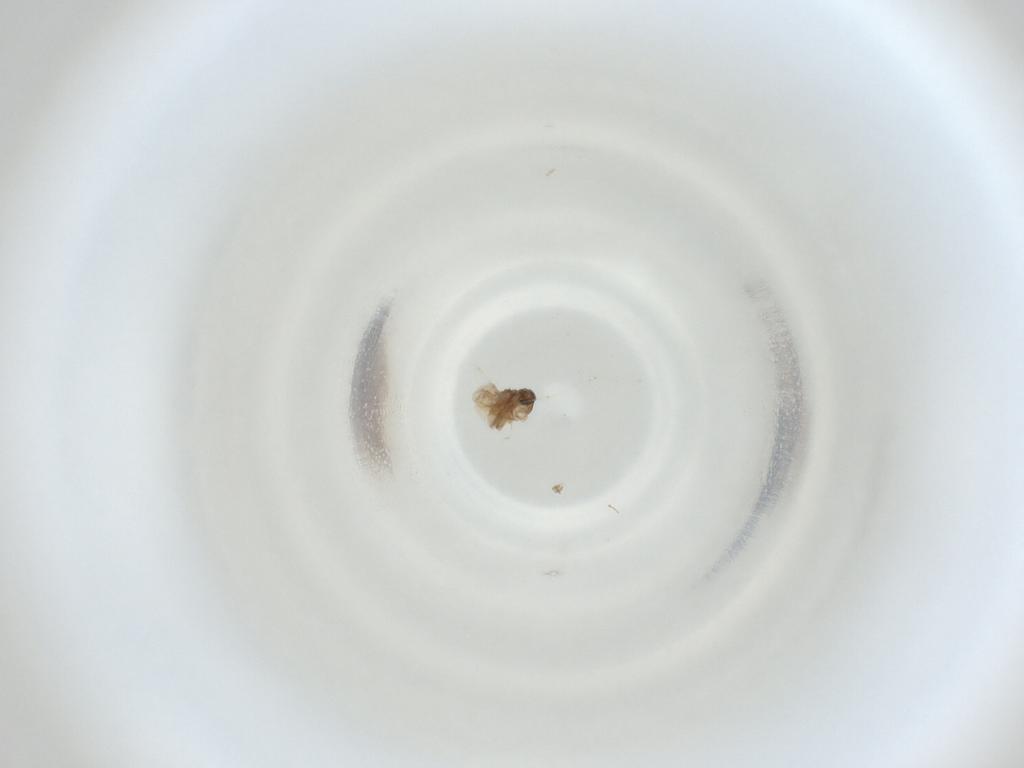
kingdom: Animalia
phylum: Arthropoda
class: Insecta
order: Diptera
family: Cecidomyiidae
